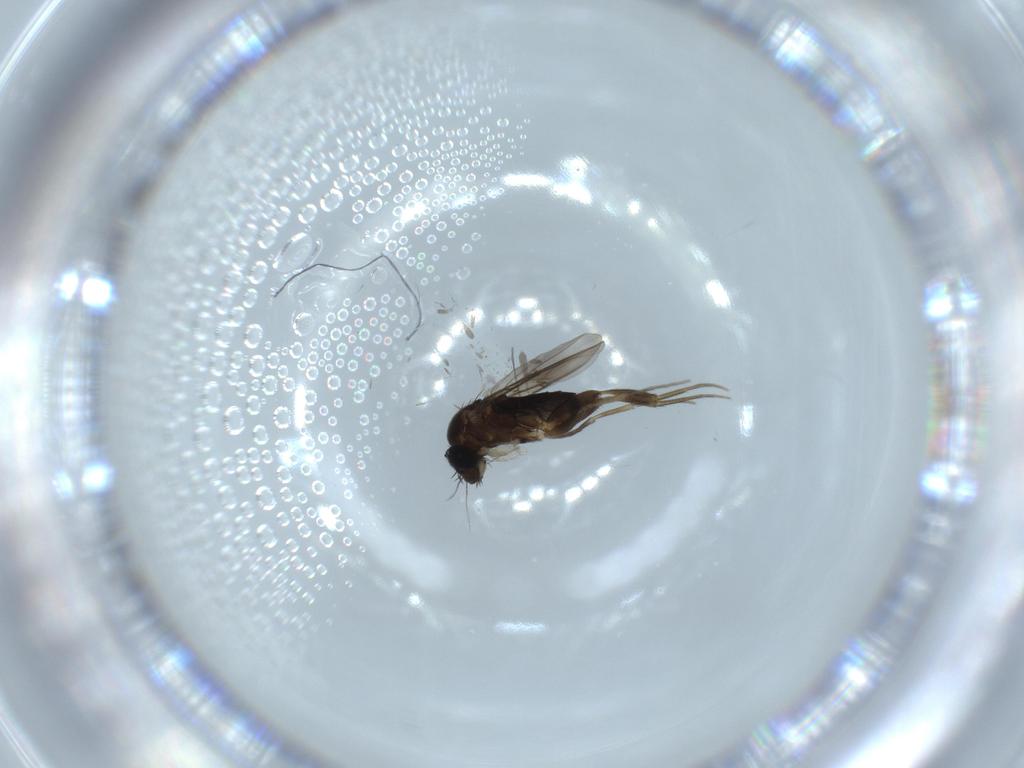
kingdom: Animalia
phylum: Arthropoda
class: Insecta
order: Diptera
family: Phoridae
